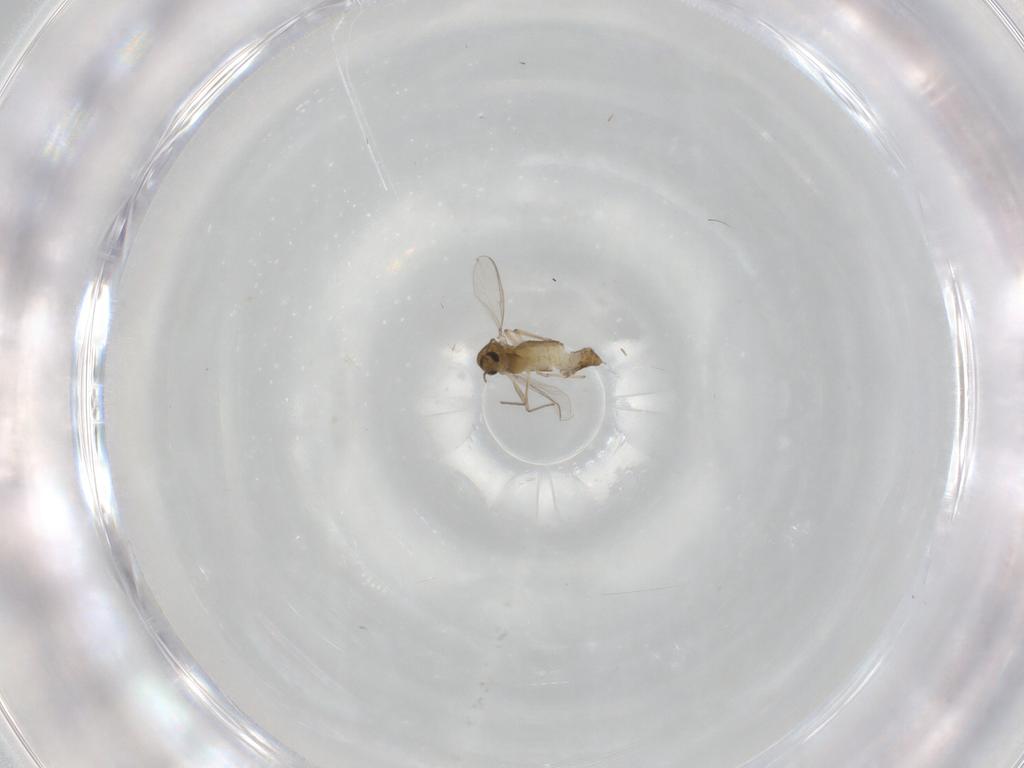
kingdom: Animalia
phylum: Arthropoda
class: Insecta
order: Diptera
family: Chironomidae
